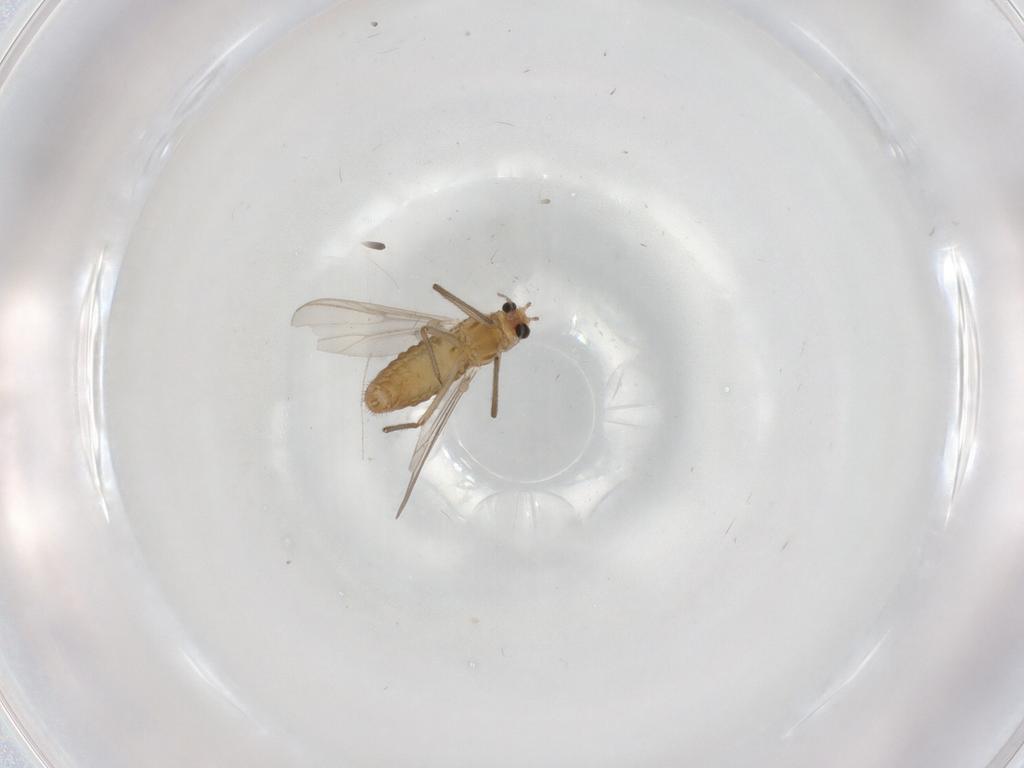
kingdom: Animalia
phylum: Arthropoda
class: Insecta
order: Diptera
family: Chironomidae
